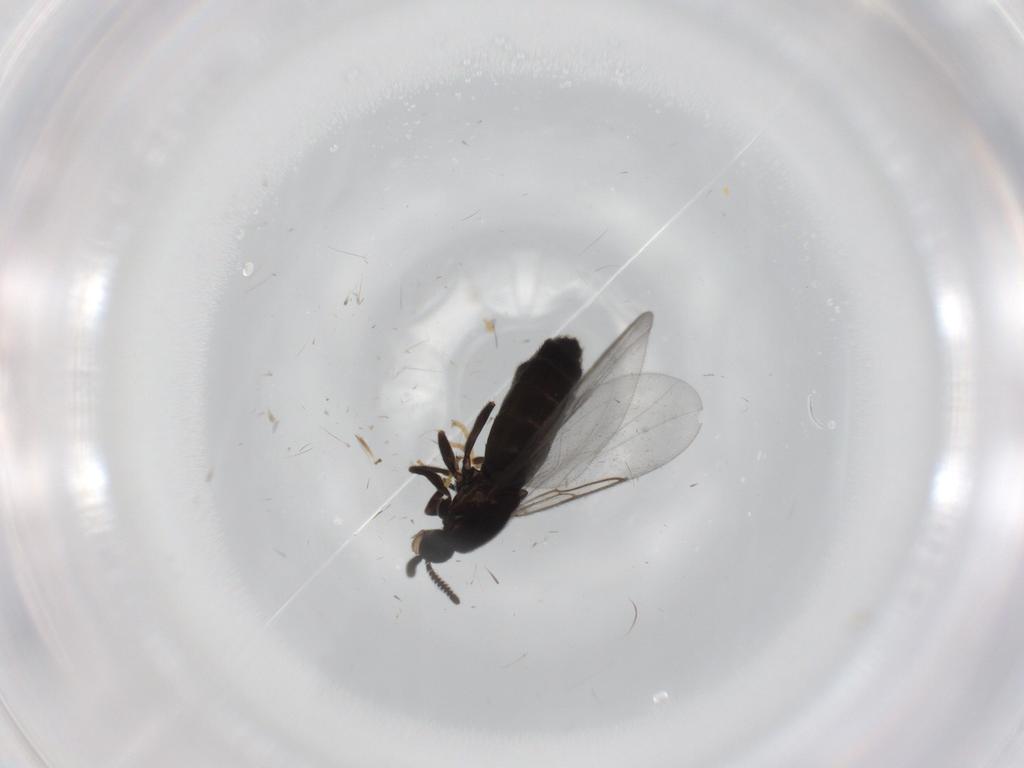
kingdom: Animalia
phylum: Arthropoda
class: Insecta
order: Diptera
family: Scatopsidae
